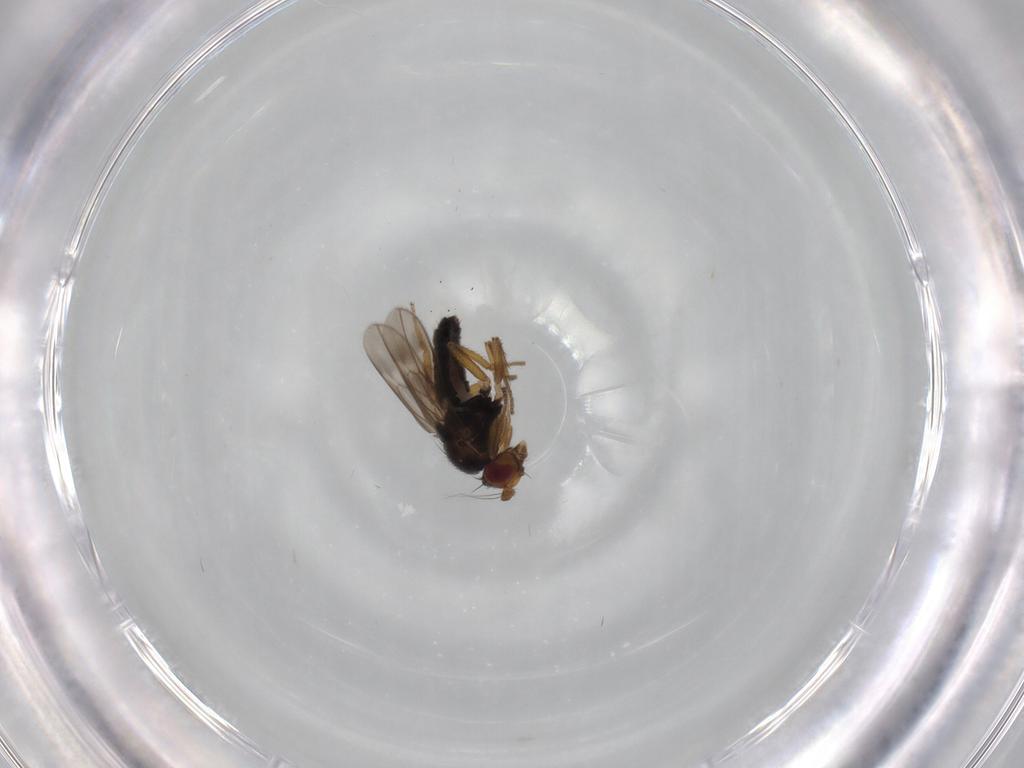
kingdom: Animalia
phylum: Arthropoda
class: Insecta
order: Diptera
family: Sphaeroceridae
